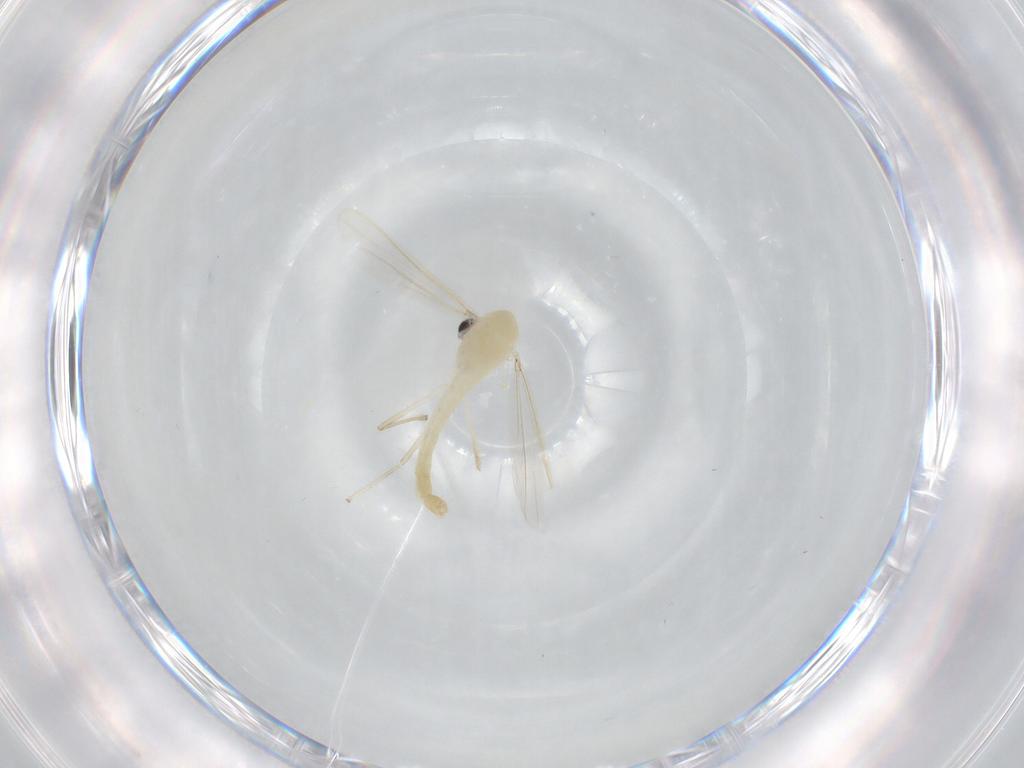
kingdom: Animalia
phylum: Arthropoda
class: Insecta
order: Diptera
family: Chironomidae
